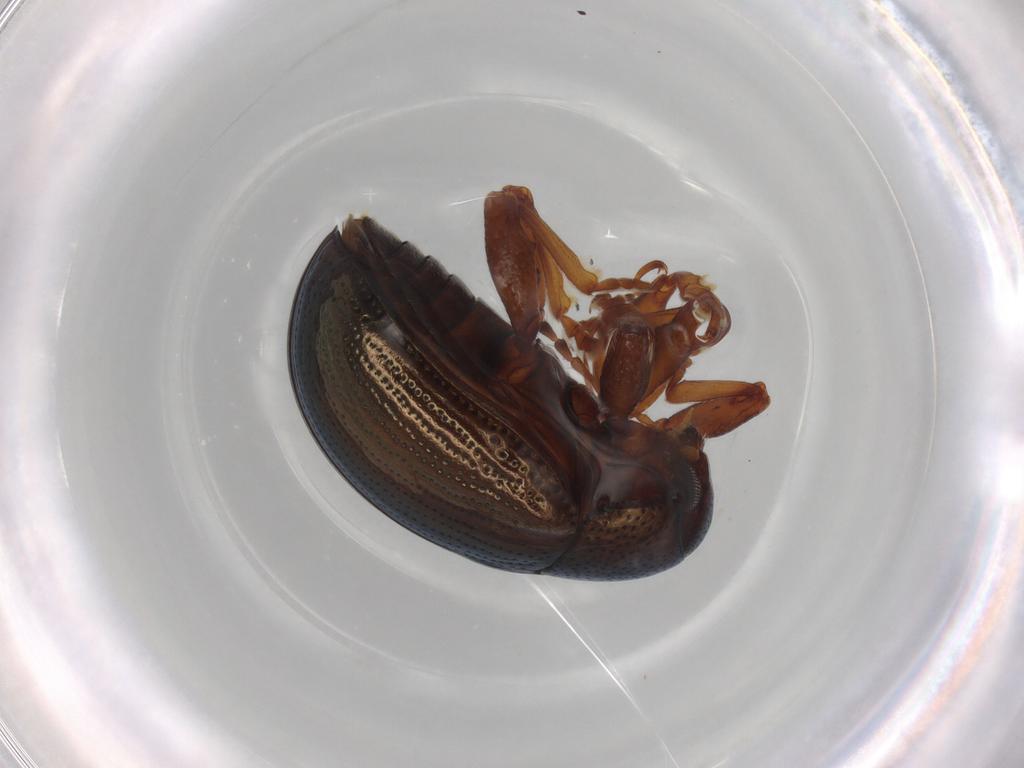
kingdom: Animalia
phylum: Arthropoda
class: Insecta
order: Coleoptera
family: Chrysomelidae
